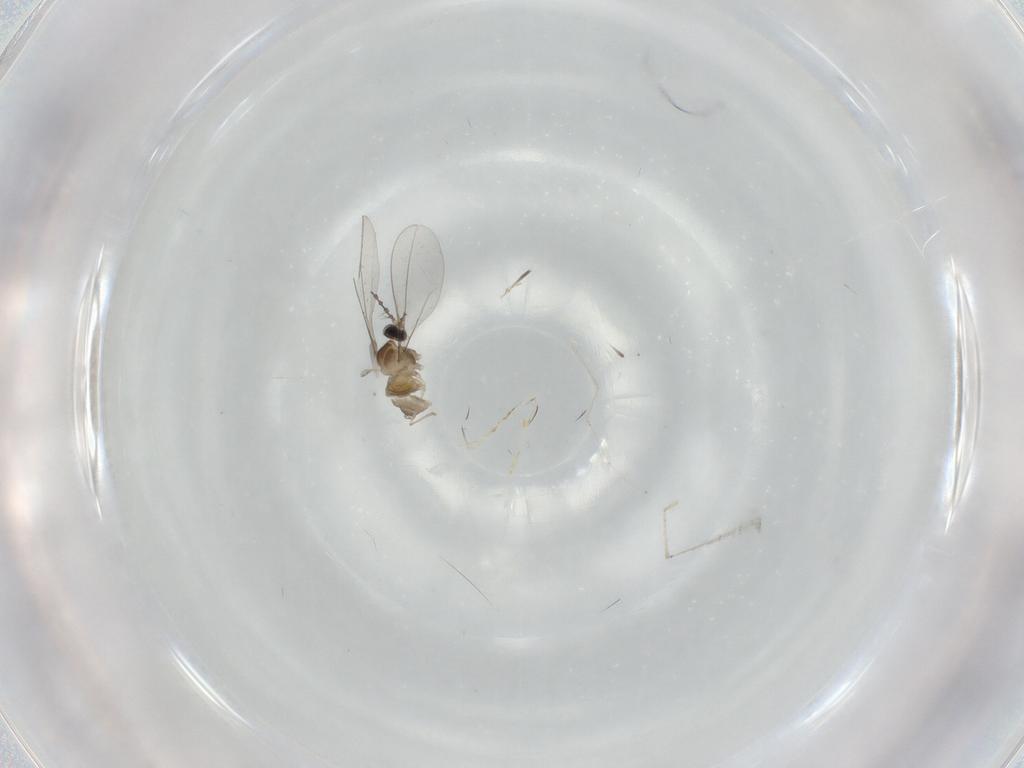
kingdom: Animalia
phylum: Arthropoda
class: Insecta
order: Diptera
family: Cecidomyiidae
